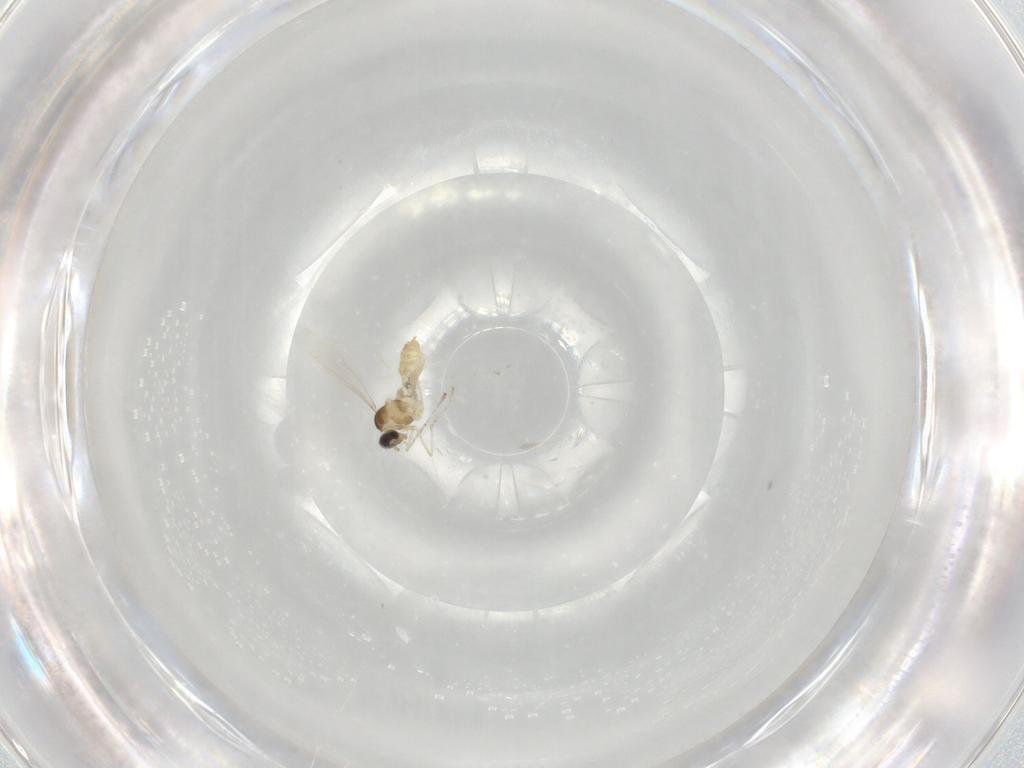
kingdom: Animalia
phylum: Arthropoda
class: Insecta
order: Diptera
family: Cecidomyiidae
